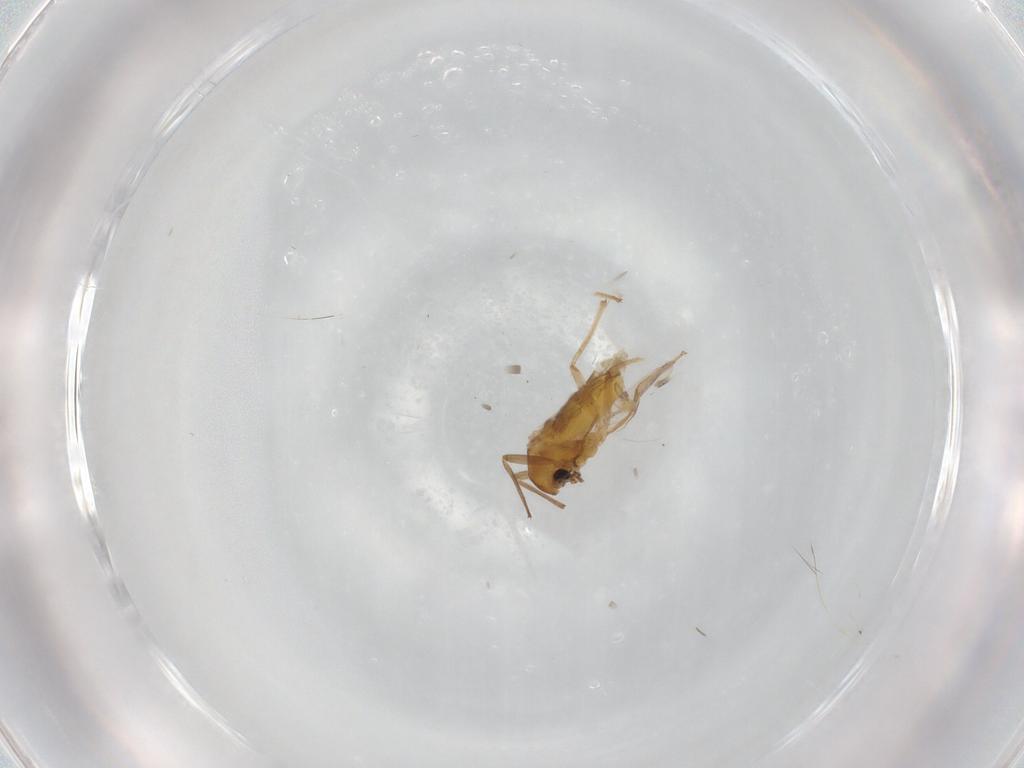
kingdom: Animalia
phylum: Arthropoda
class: Insecta
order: Diptera
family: Chironomidae
